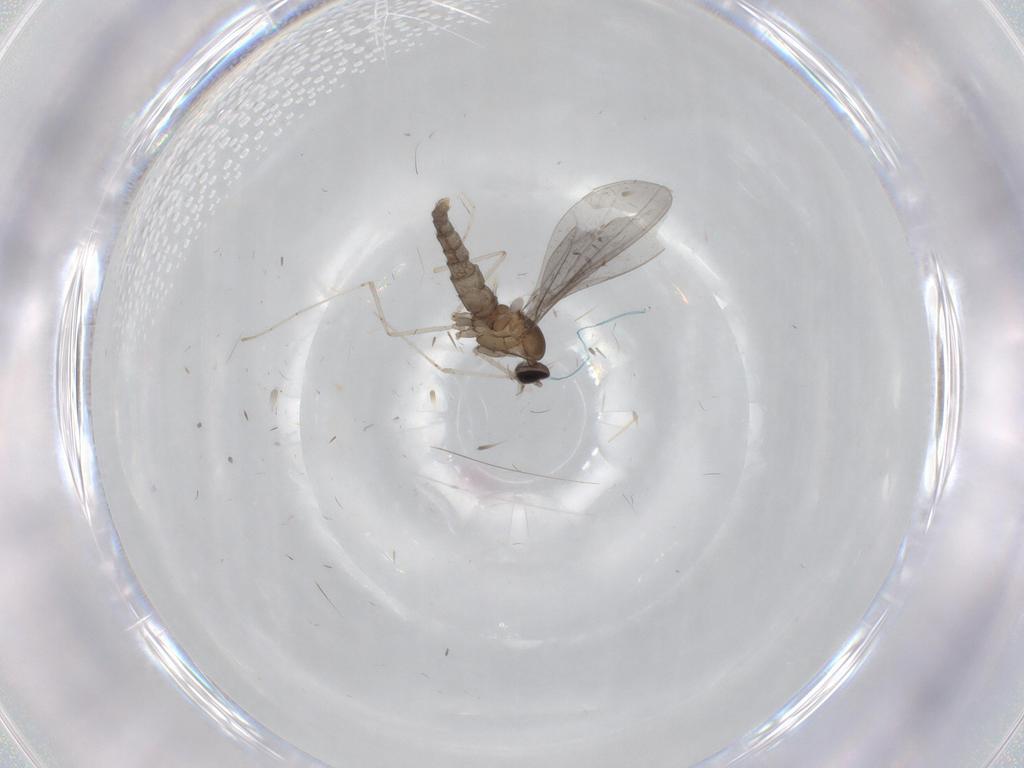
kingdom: Animalia
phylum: Arthropoda
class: Insecta
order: Diptera
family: Cecidomyiidae
